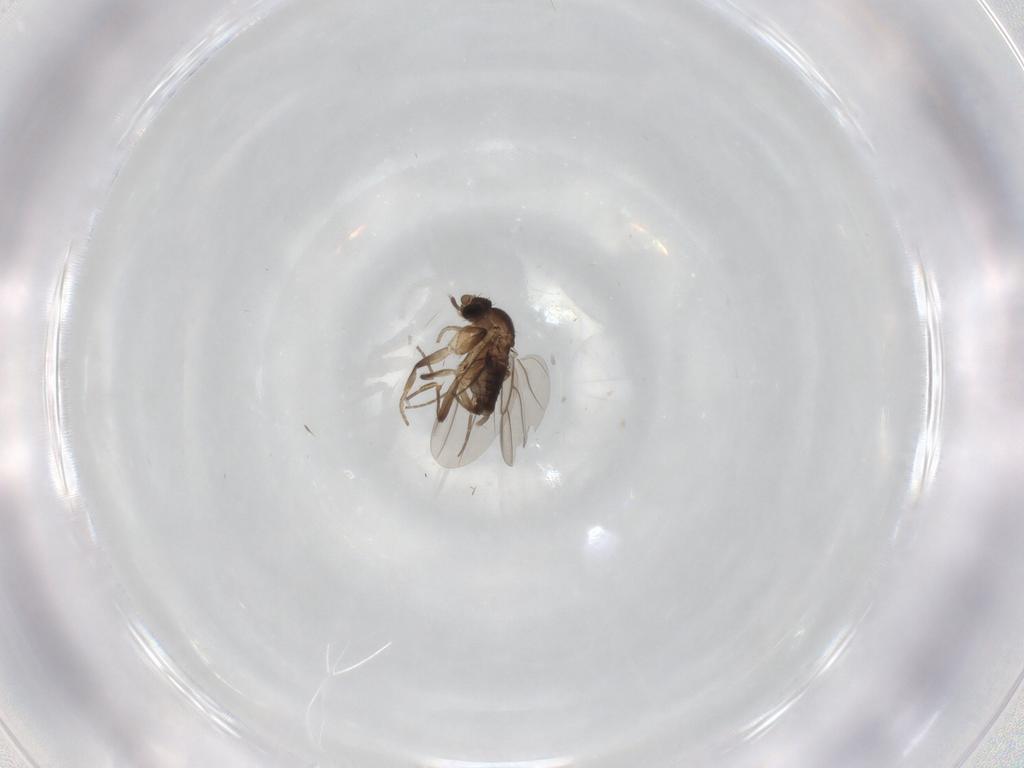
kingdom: Animalia
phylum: Arthropoda
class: Insecta
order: Diptera
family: Phoridae
